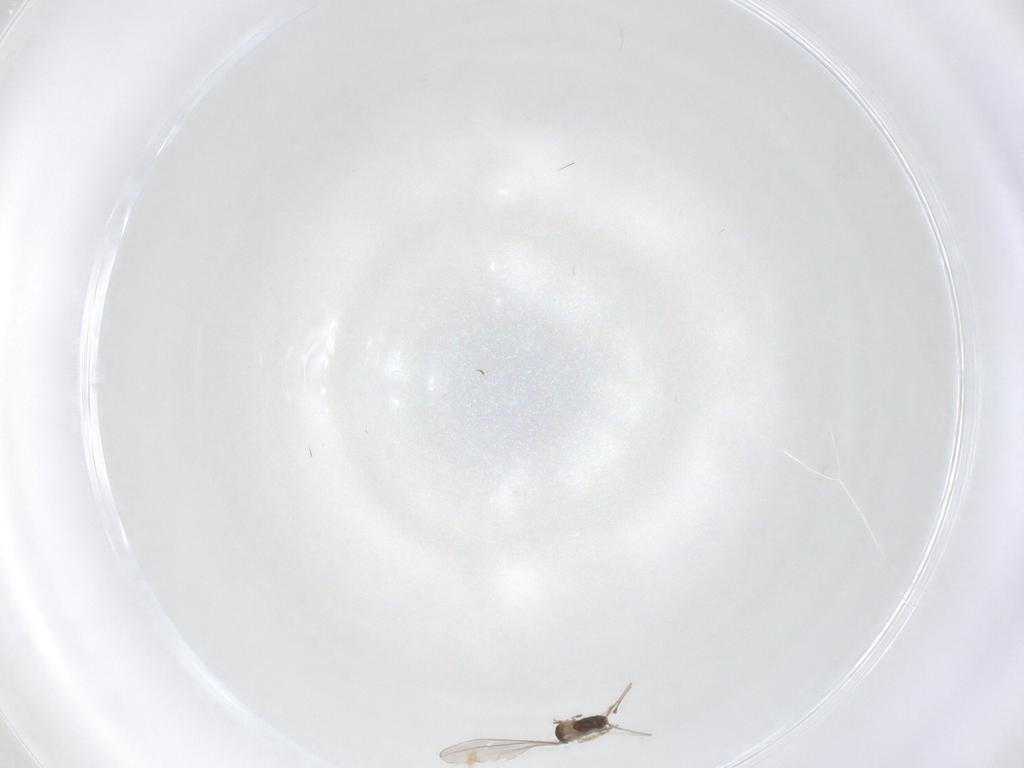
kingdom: Animalia
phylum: Arthropoda
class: Insecta
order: Diptera
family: Cecidomyiidae
